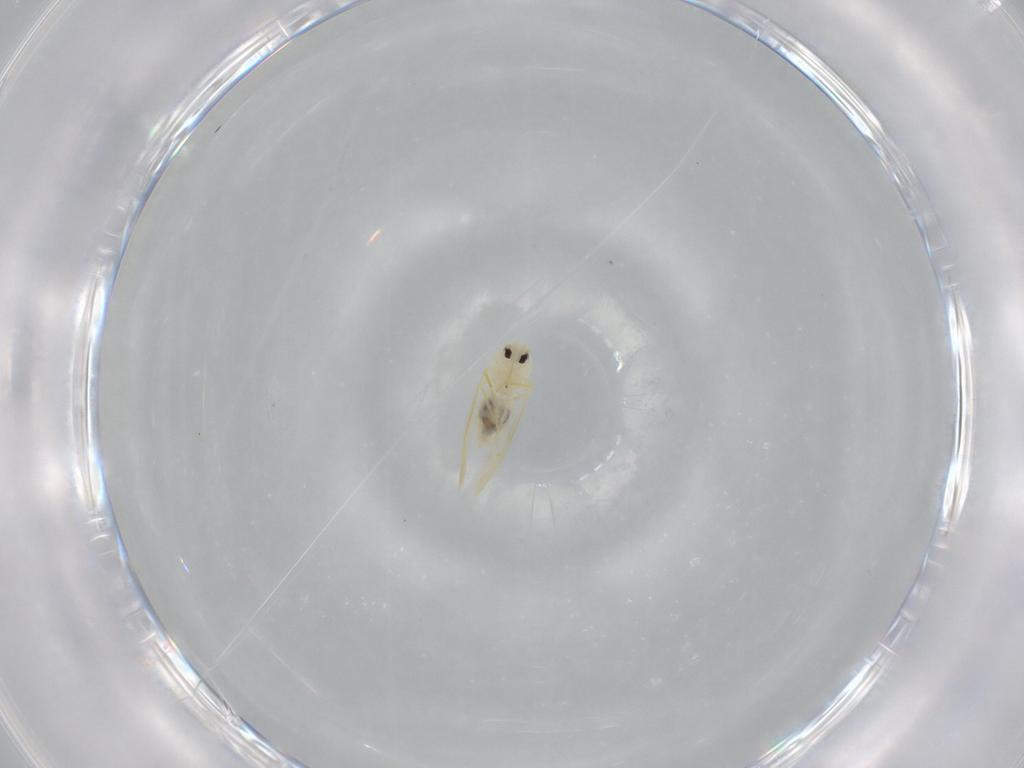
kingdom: Animalia
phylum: Arthropoda
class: Insecta
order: Hemiptera
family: Aleyrodidae
